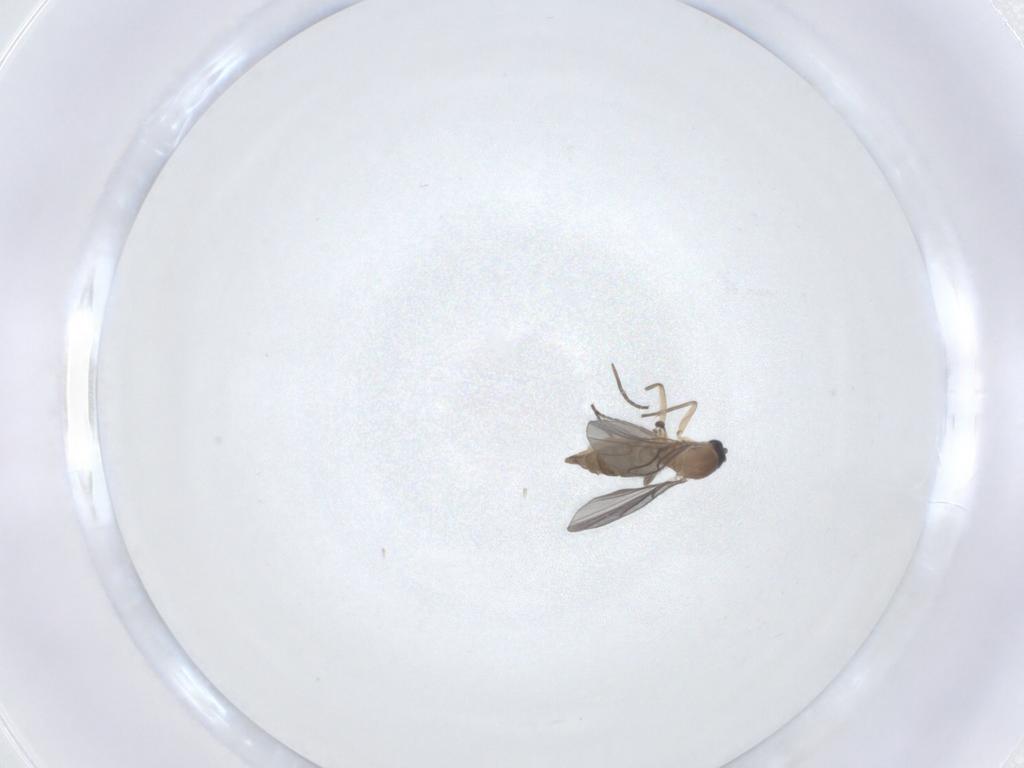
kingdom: Animalia
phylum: Arthropoda
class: Insecta
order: Diptera
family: Sciaridae
